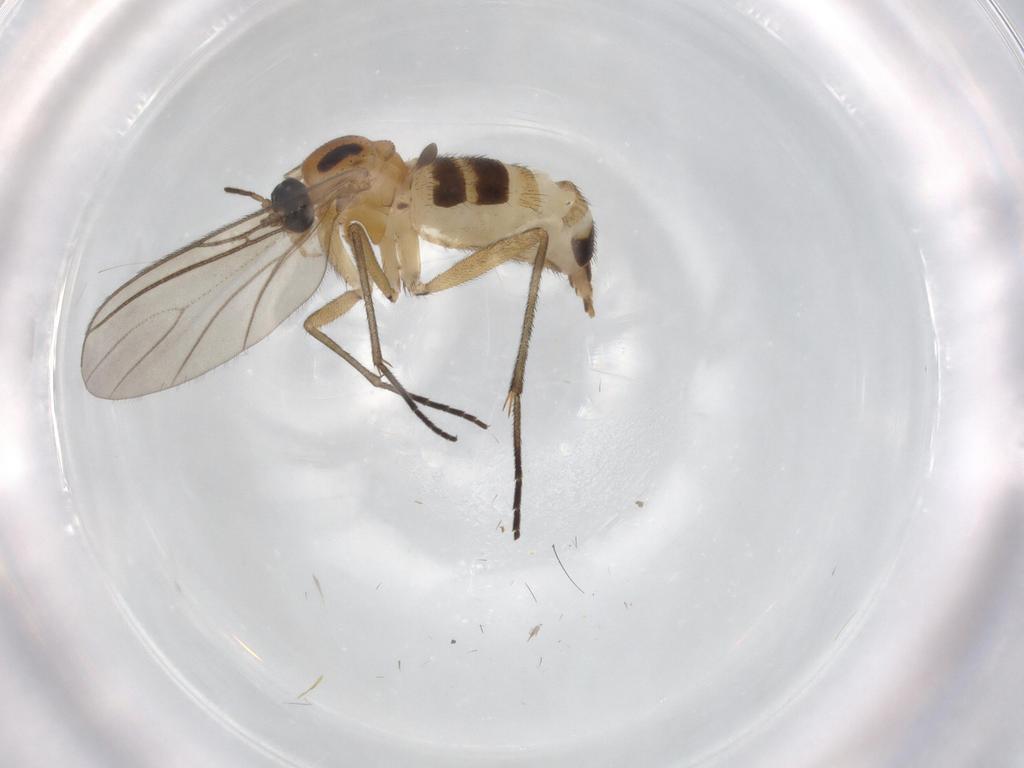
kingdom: Animalia
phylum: Arthropoda
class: Insecta
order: Diptera
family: Sciaridae
